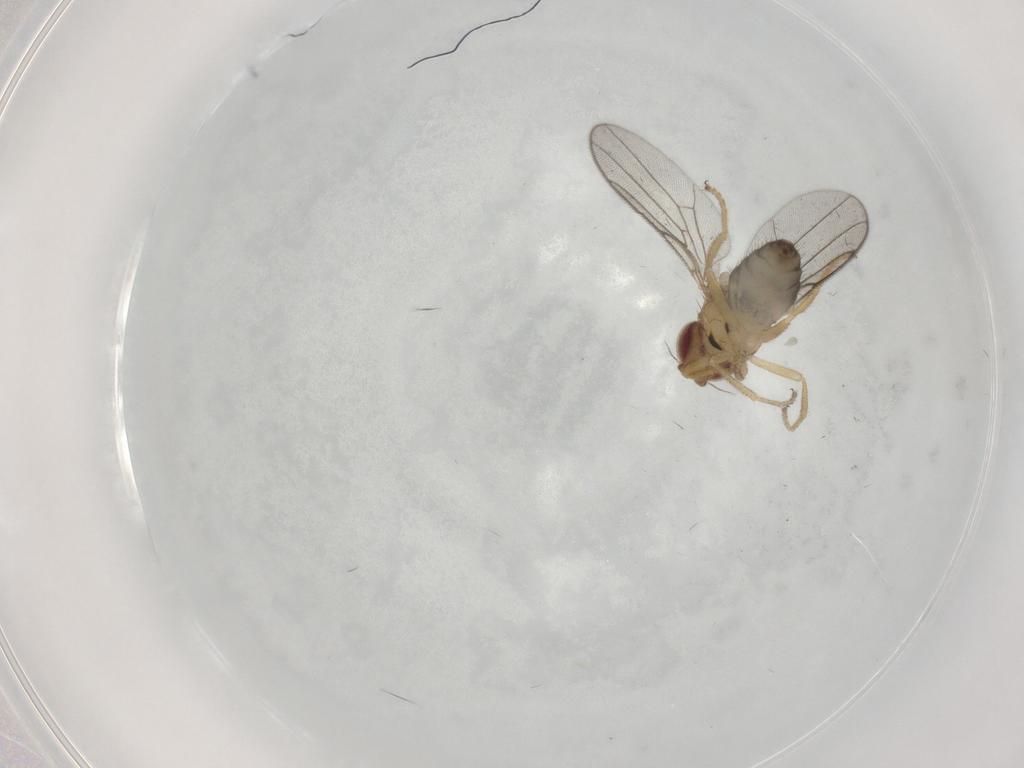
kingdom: Animalia
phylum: Arthropoda
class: Insecta
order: Diptera
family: Chloropidae
